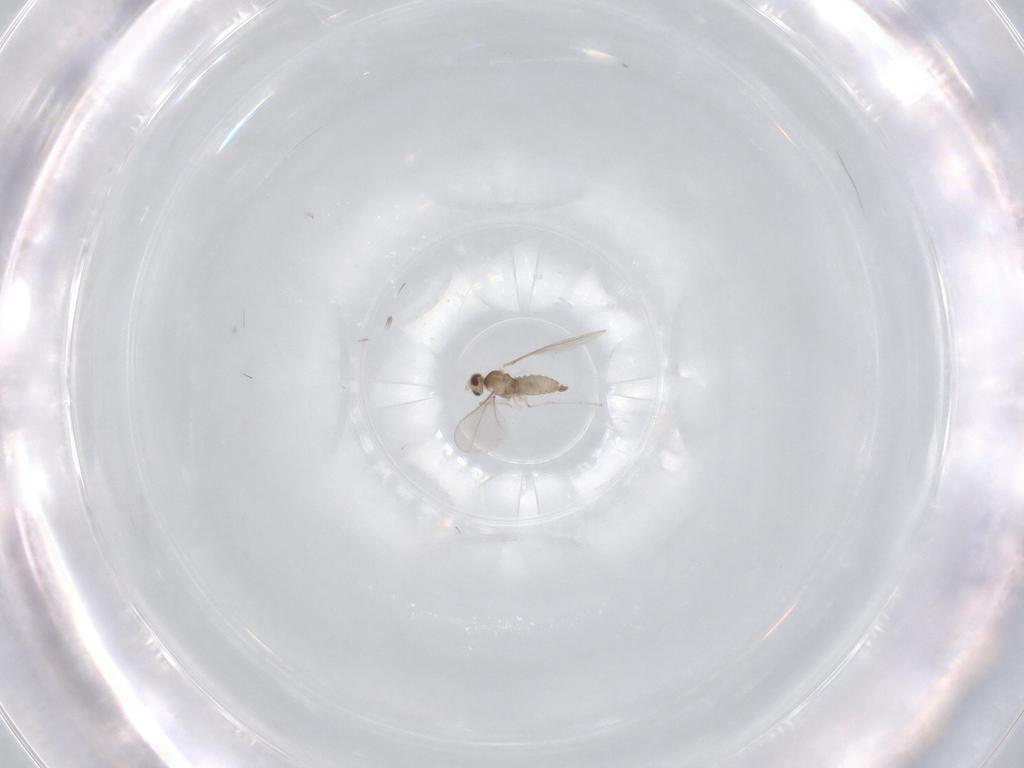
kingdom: Animalia
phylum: Arthropoda
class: Insecta
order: Diptera
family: Cecidomyiidae
